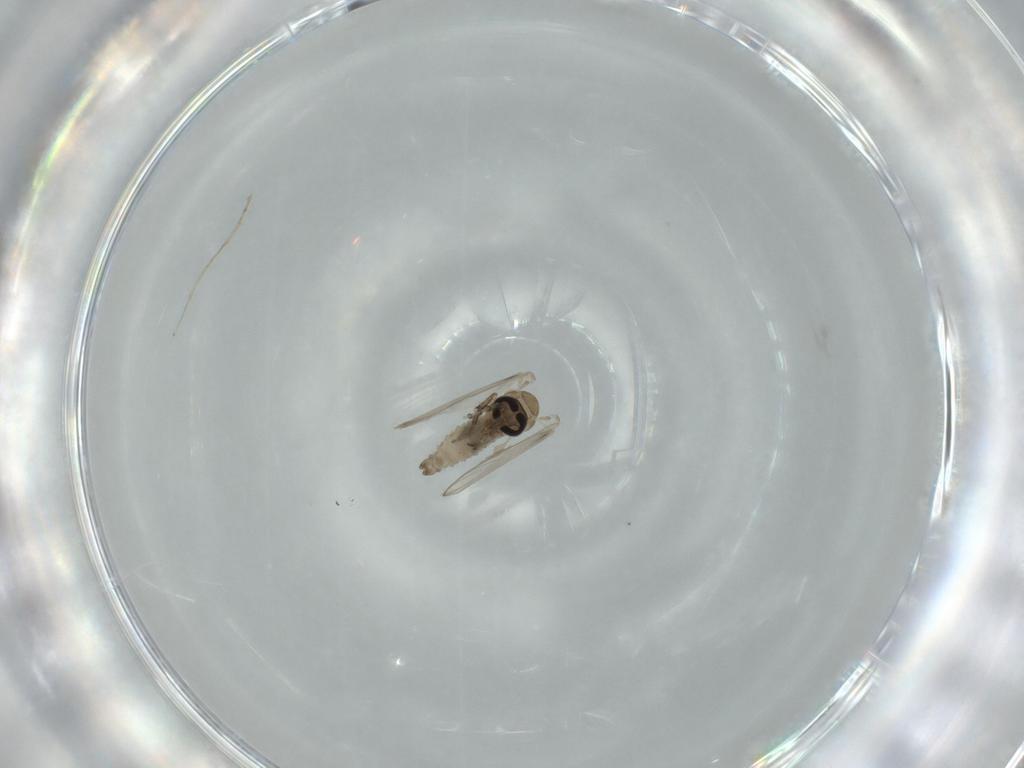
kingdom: Animalia
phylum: Arthropoda
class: Insecta
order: Diptera
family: Psychodidae
